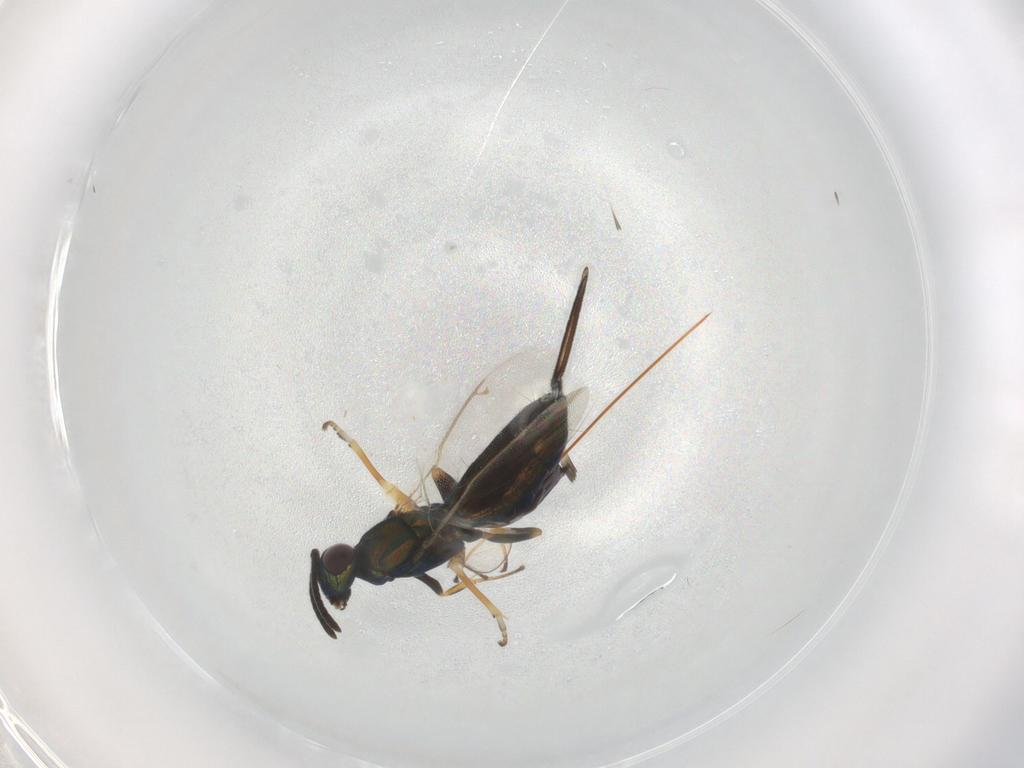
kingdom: Animalia
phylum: Arthropoda
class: Insecta
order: Hymenoptera
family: Eupelmidae
